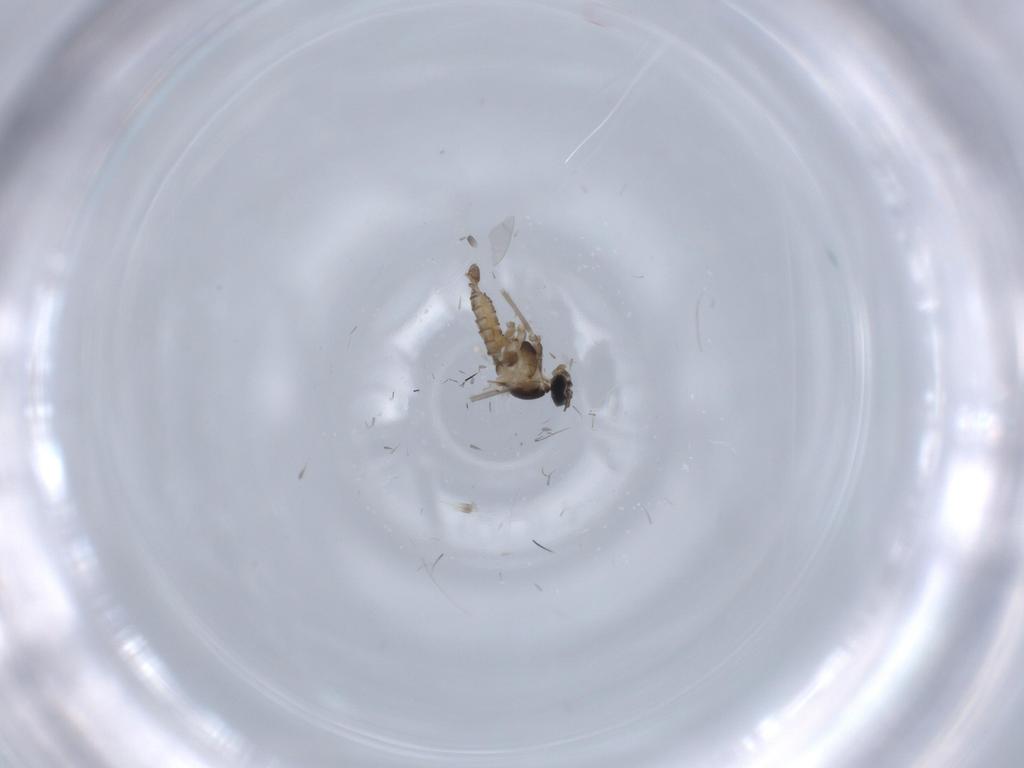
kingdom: Animalia
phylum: Arthropoda
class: Insecta
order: Diptera
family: Cecidomyiidae
